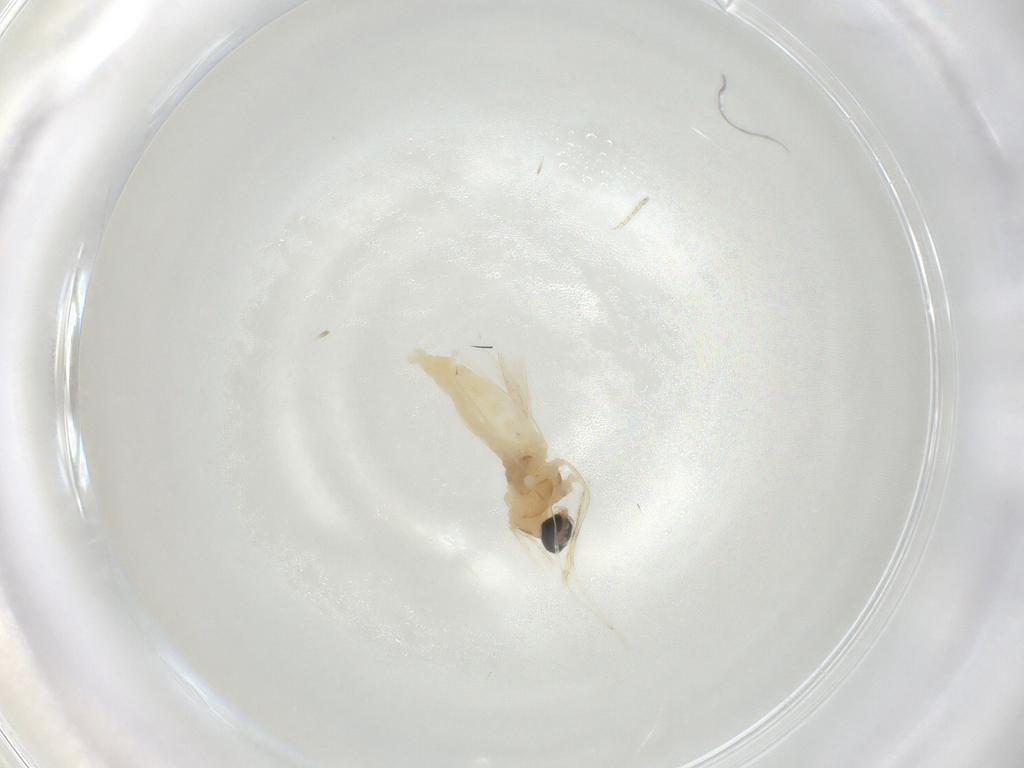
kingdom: Animalia
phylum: Arthropoda
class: Insecta
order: Diptera
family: Muscidae
